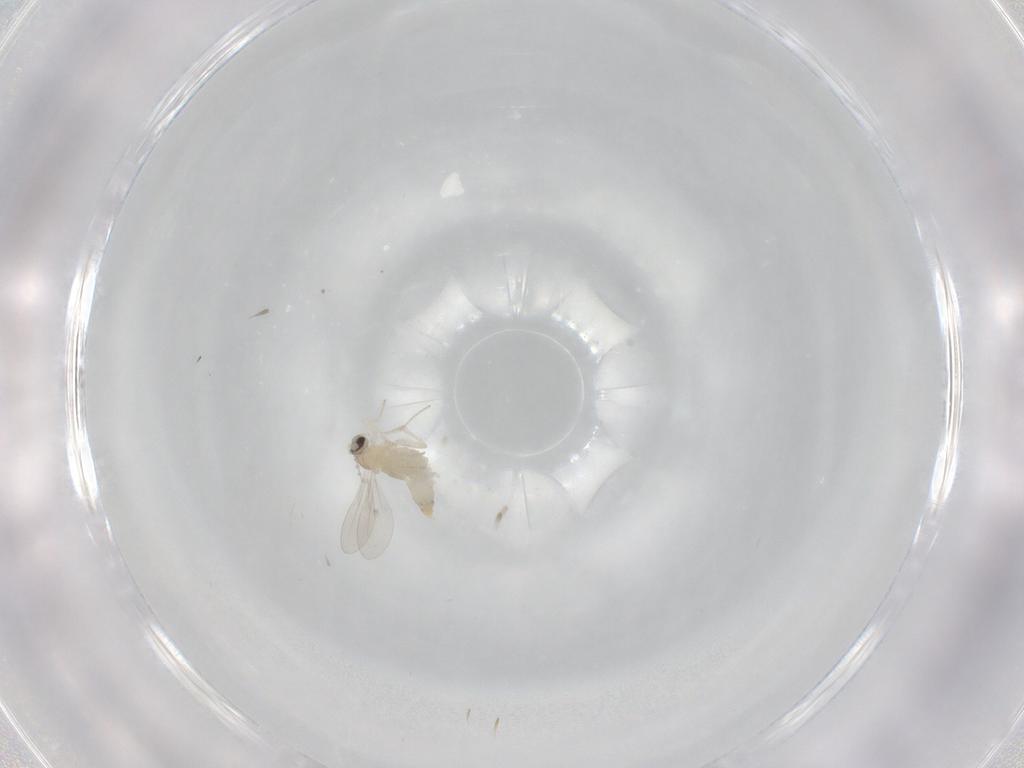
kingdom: Animalia
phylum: Arthropoda
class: Insecta
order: Diptera
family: Cecidomyiidae
